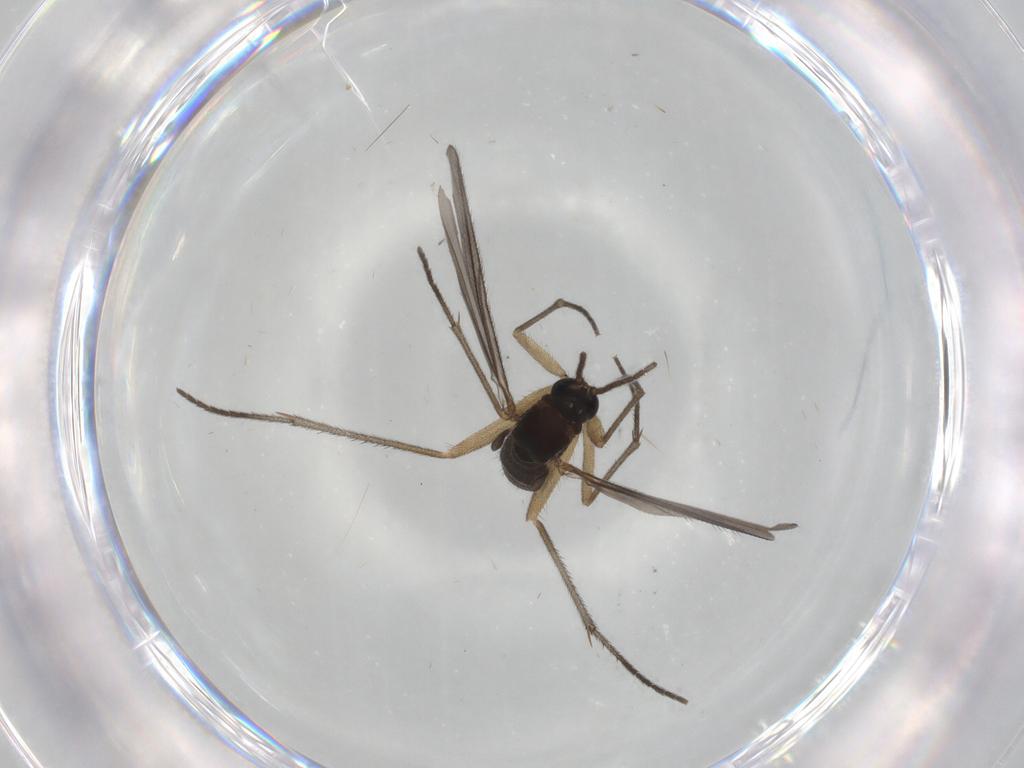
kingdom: Animalia
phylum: Arthropoda
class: Insecta
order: Diptera
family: Sciaridae
